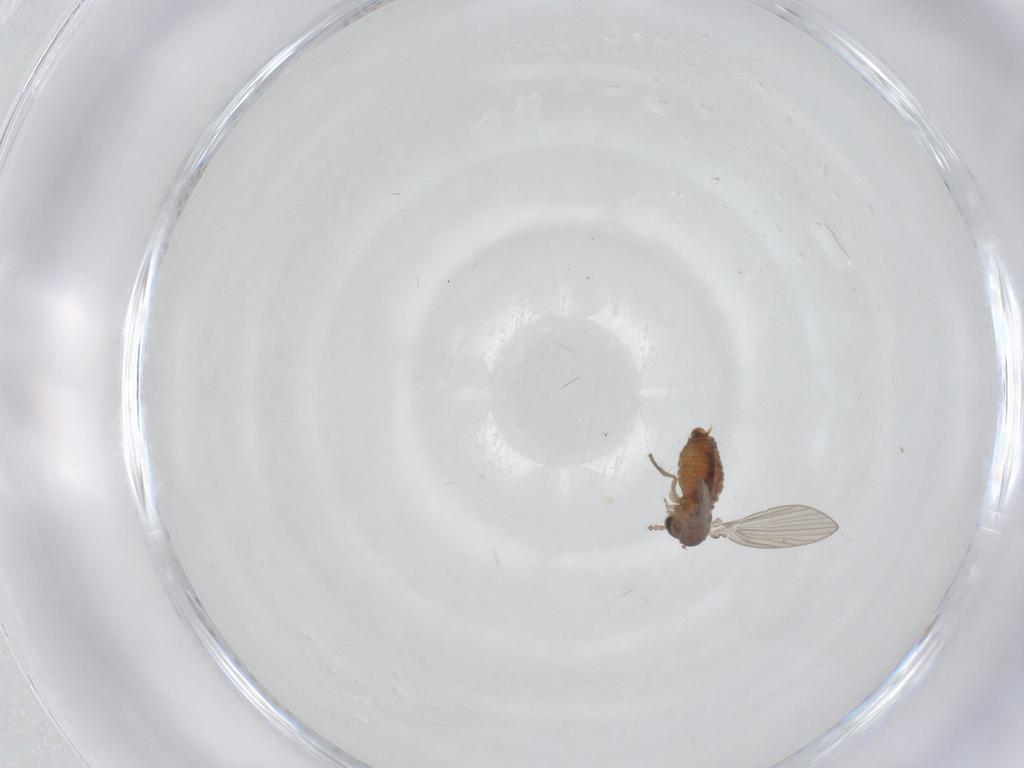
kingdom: Animalia
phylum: Arthropoda
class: Insecta
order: Diptera
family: Psychodidae
